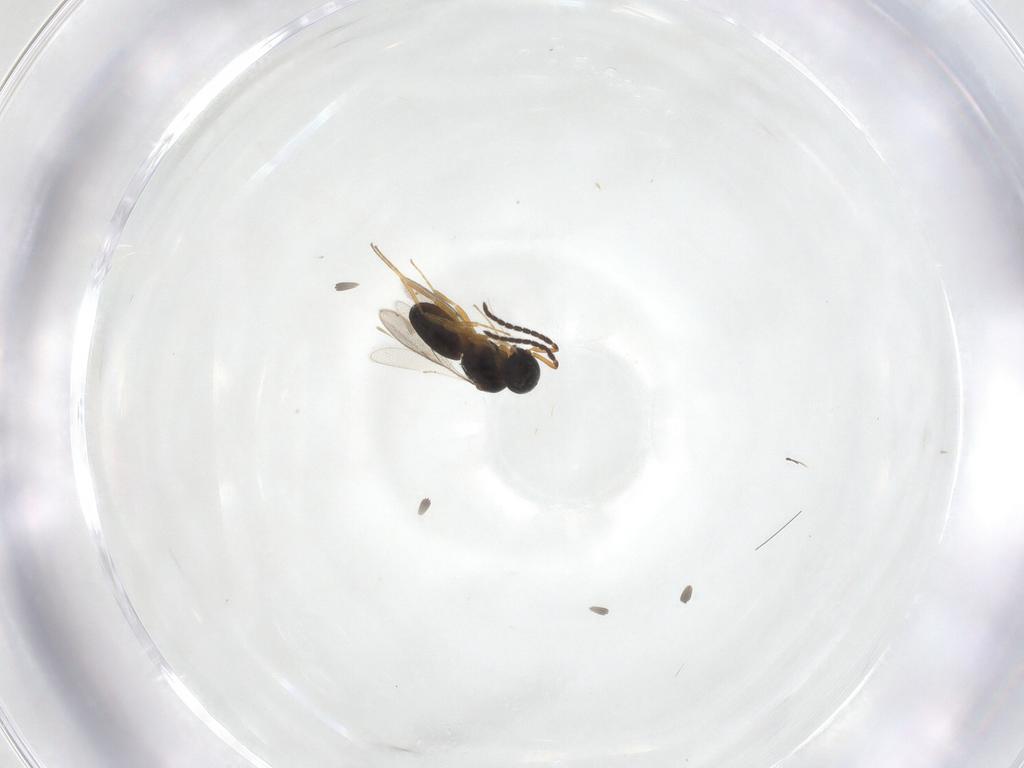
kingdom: Animalia
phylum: Arthropoda
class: Insecta
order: Hymenoptera
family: Scelionidae
